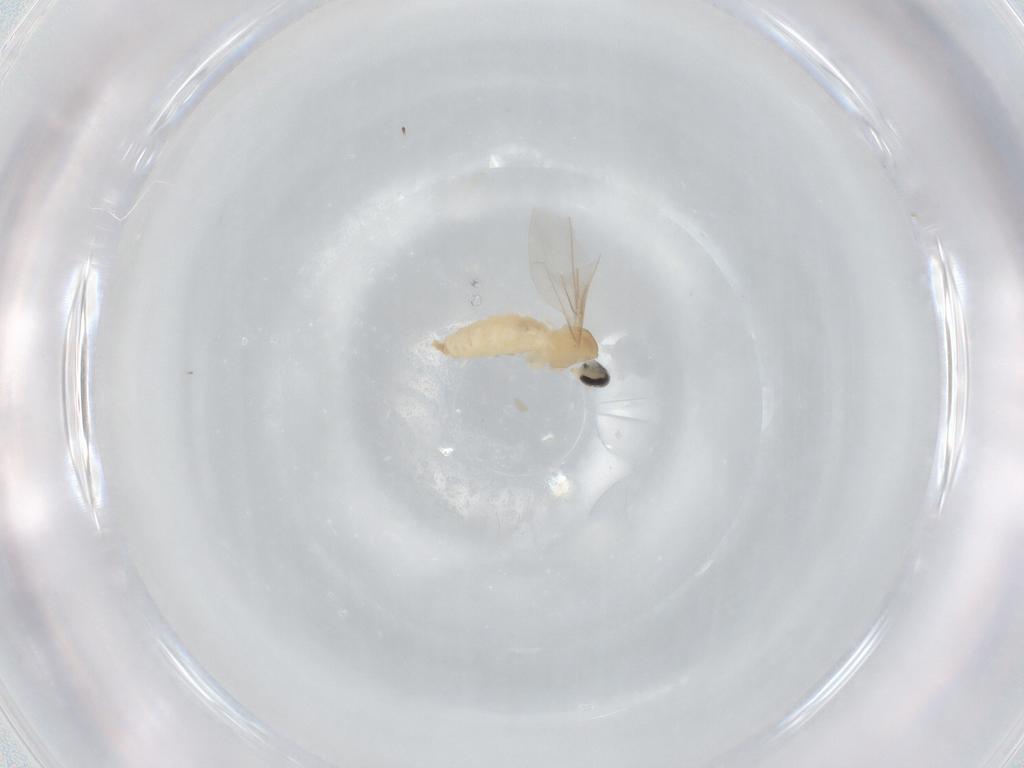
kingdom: Animalia
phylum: Arthropoda
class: Insecta
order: Diptera
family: Cecidomyiidae
